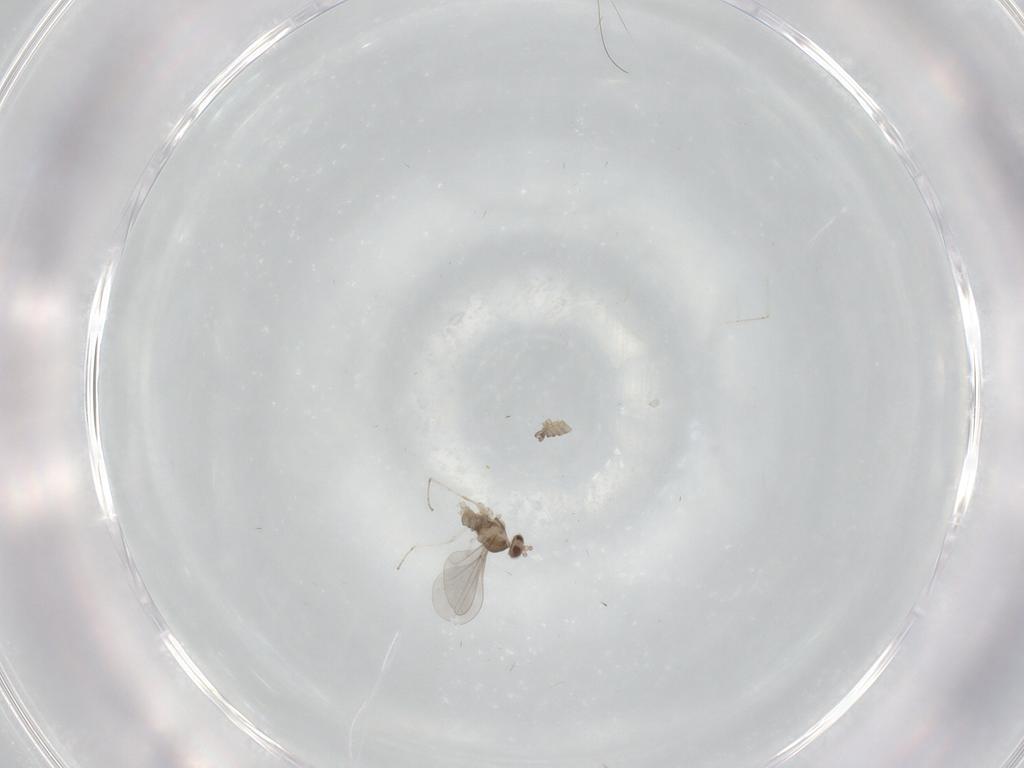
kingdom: Animalia
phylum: Arthropoda
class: Insecta
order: Diptera
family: Cecidomyiidae
